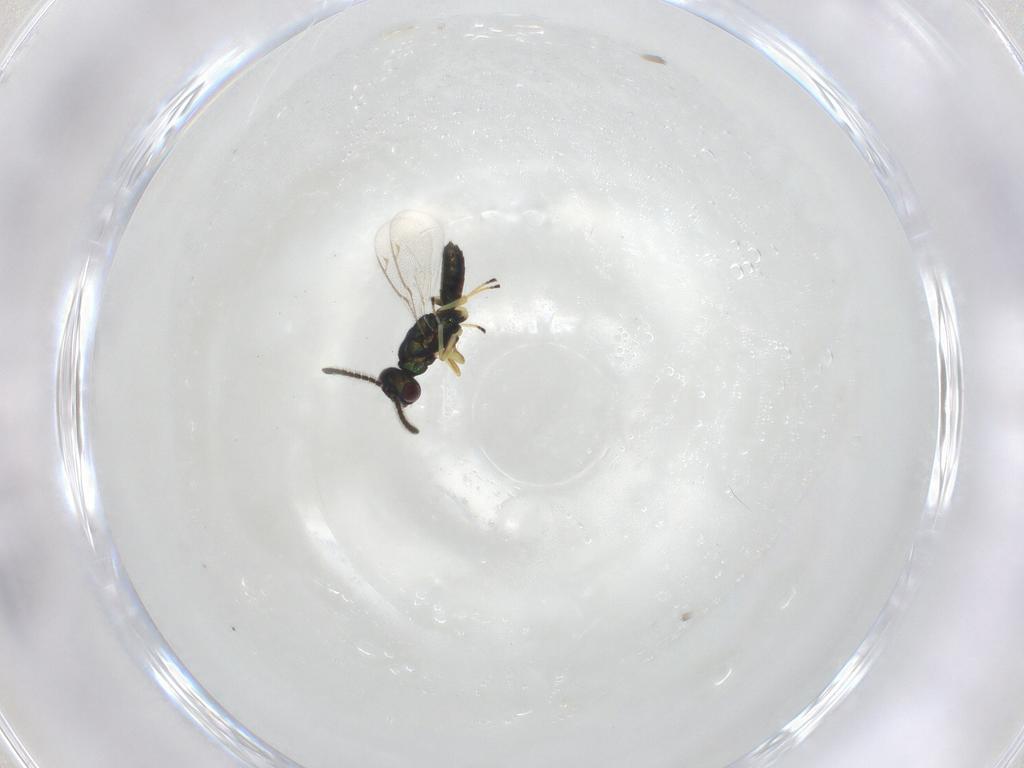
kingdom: Animalia
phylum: Arthropoda
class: Insecta
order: Hymenoptera
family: Eulophidae
